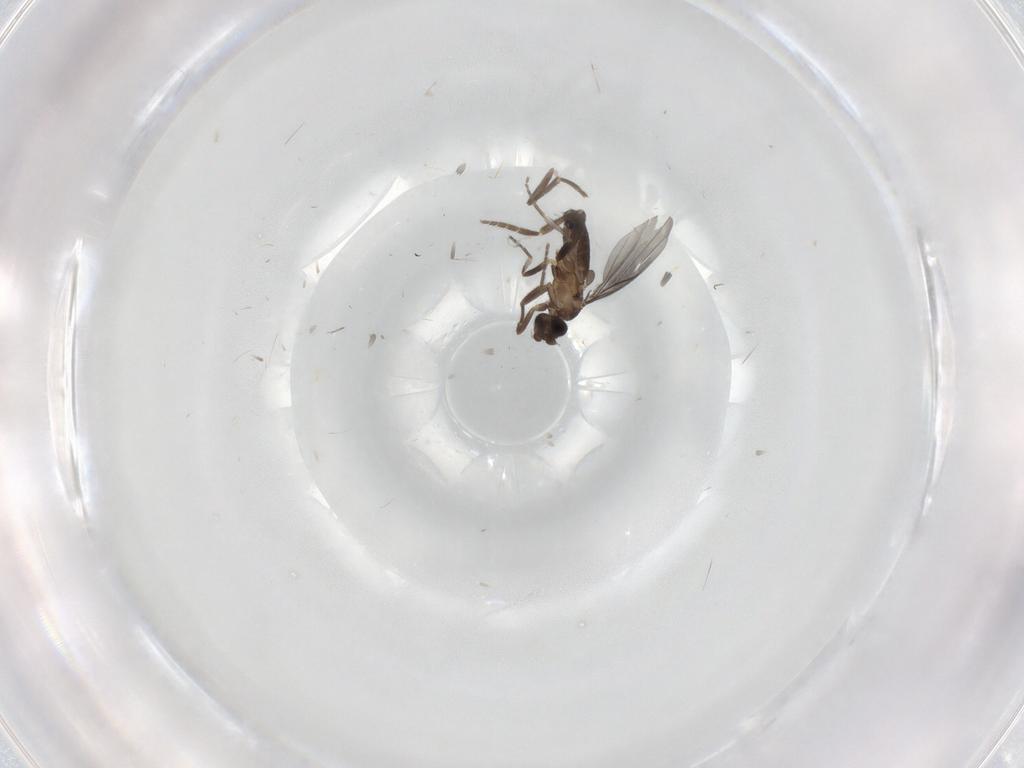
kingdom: Animalia
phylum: Arthropoda
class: Insecta
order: Diptera
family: Phoridae
